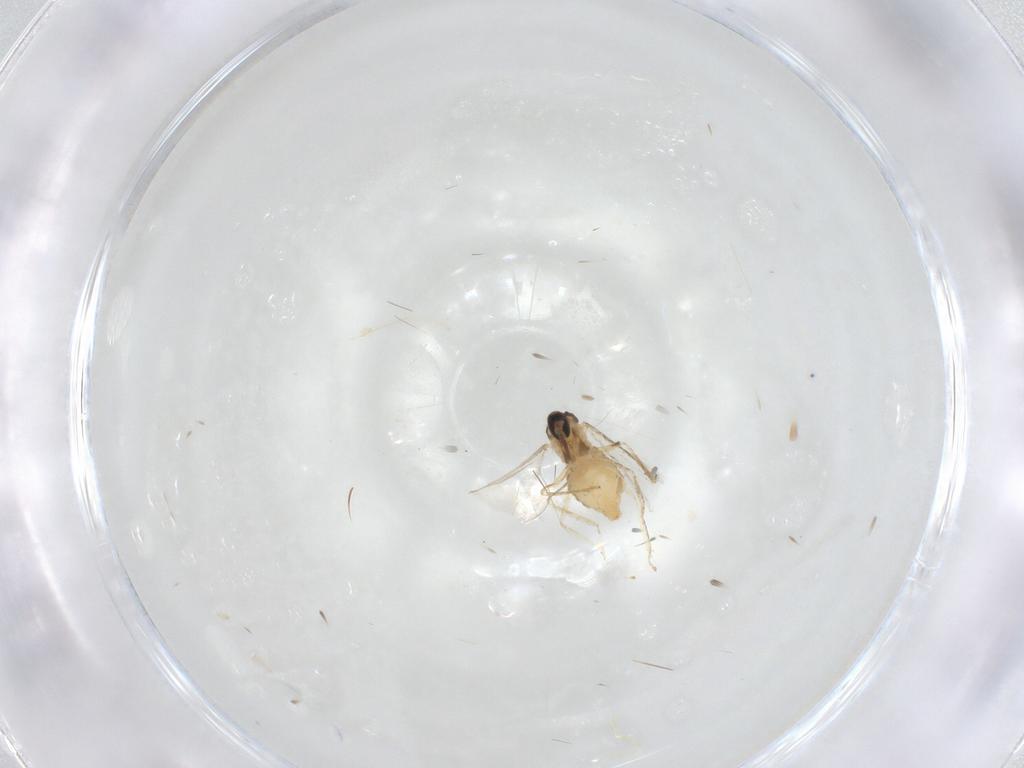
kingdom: Animalia
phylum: Arthropoda
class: Insecta
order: Diptera
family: Cecidomyiidae
